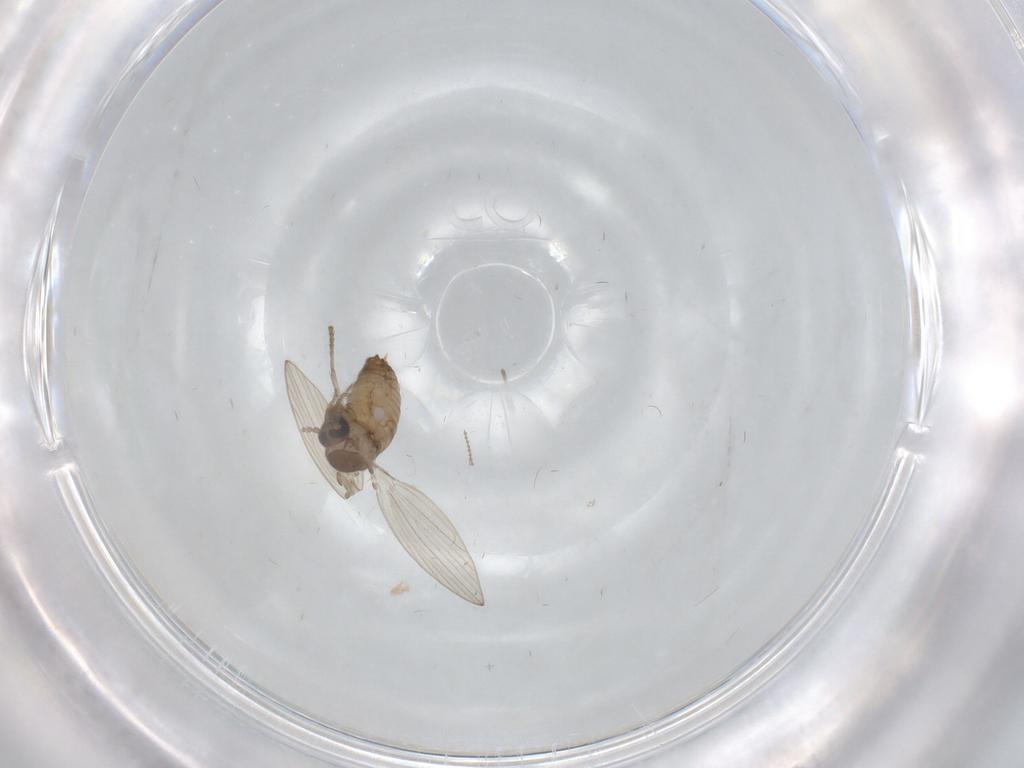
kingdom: Animalia
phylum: Arthropoda
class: Insecta
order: Diptera
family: Psychodidae
